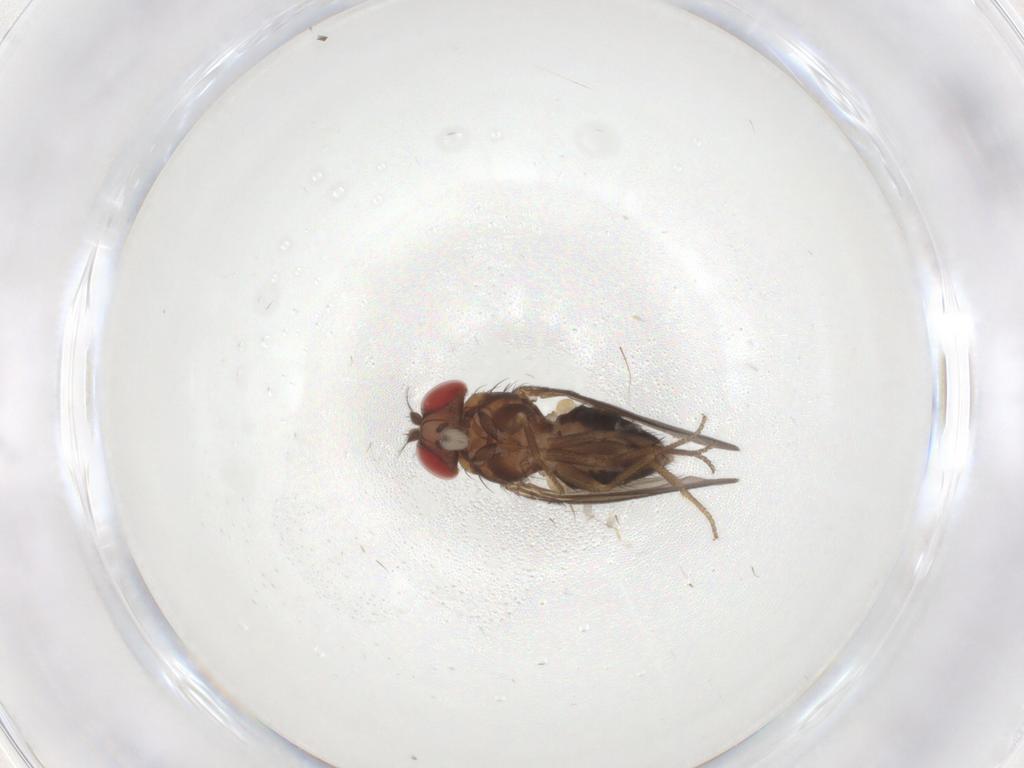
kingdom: Animalia
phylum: Arthropoda
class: Insecta
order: Diptera
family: Drosophilidae
